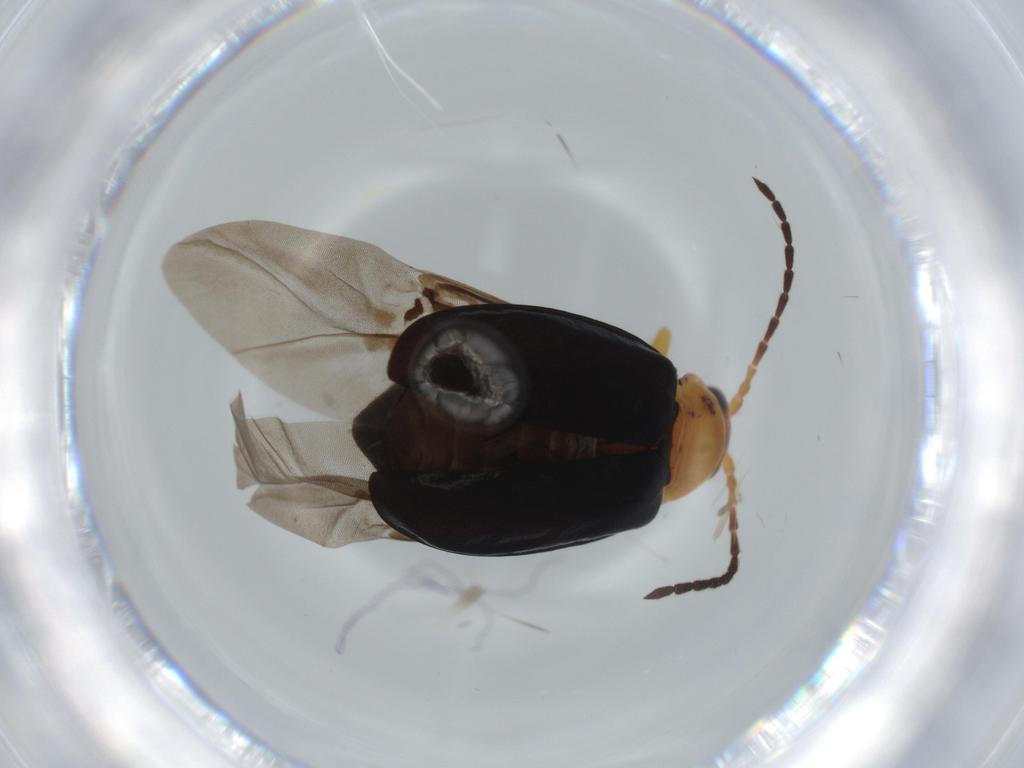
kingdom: Animalia
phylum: Arthropoda
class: Insecta
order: Coleoptera
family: Chrysomelidae
